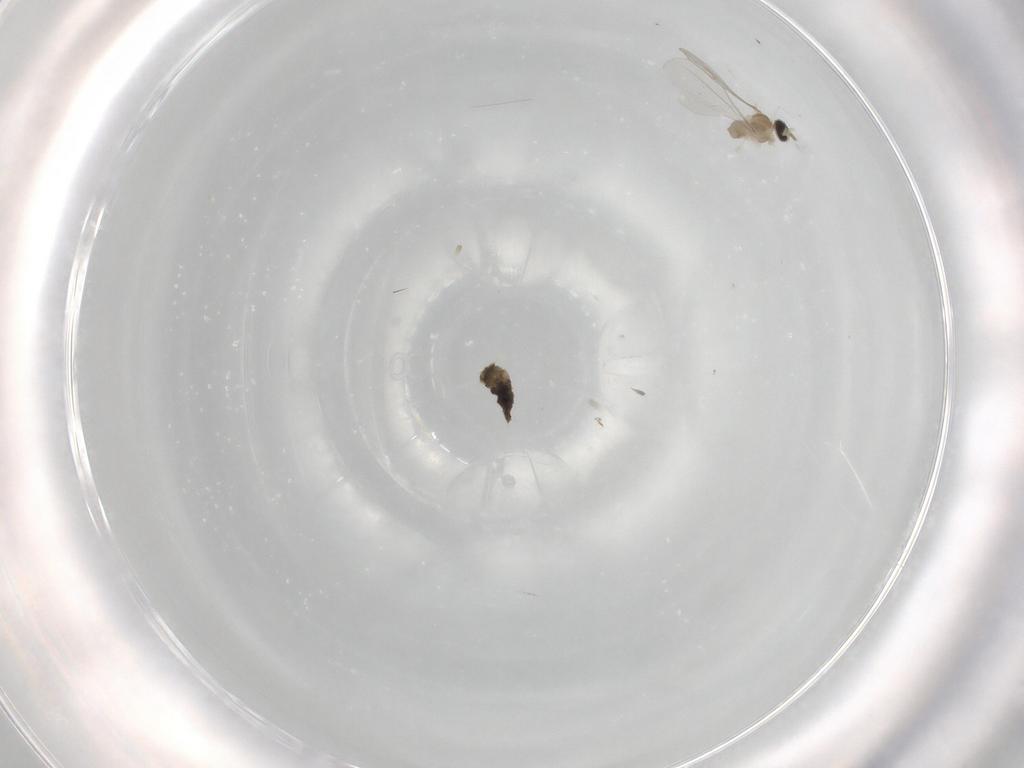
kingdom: Animalia
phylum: Arthropoda
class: Insecta
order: Diptera
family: Cecidomyiidae
